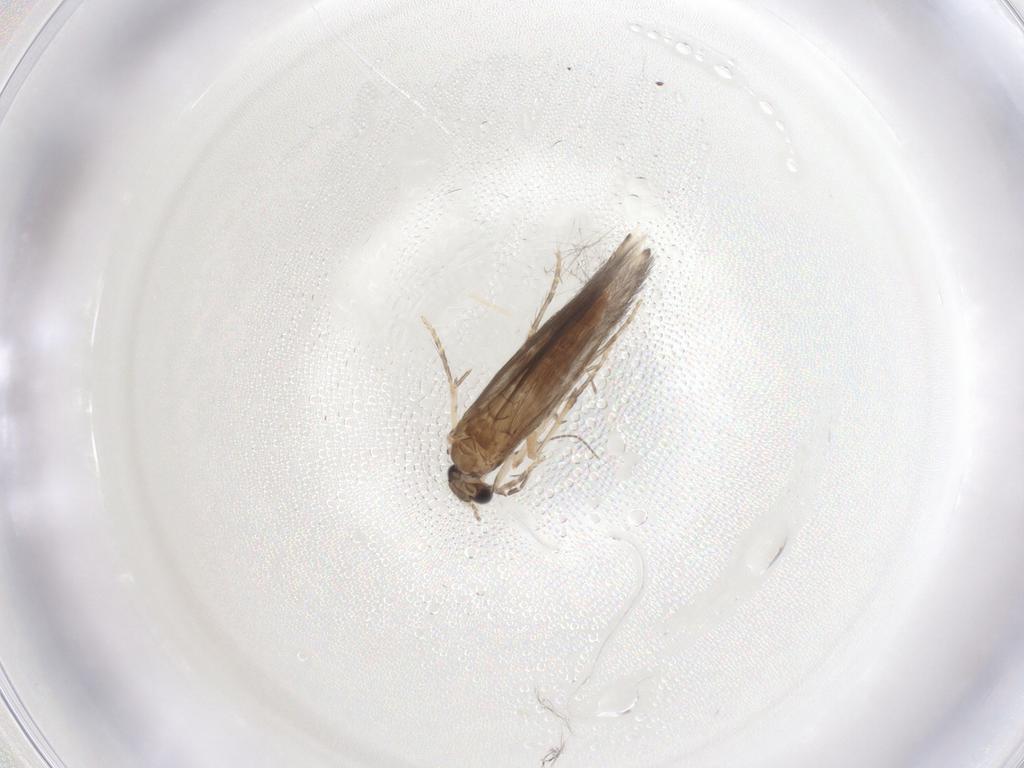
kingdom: Animalia
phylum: Arthropoda
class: Insecta
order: Trichoptera
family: Hydroptilidae
